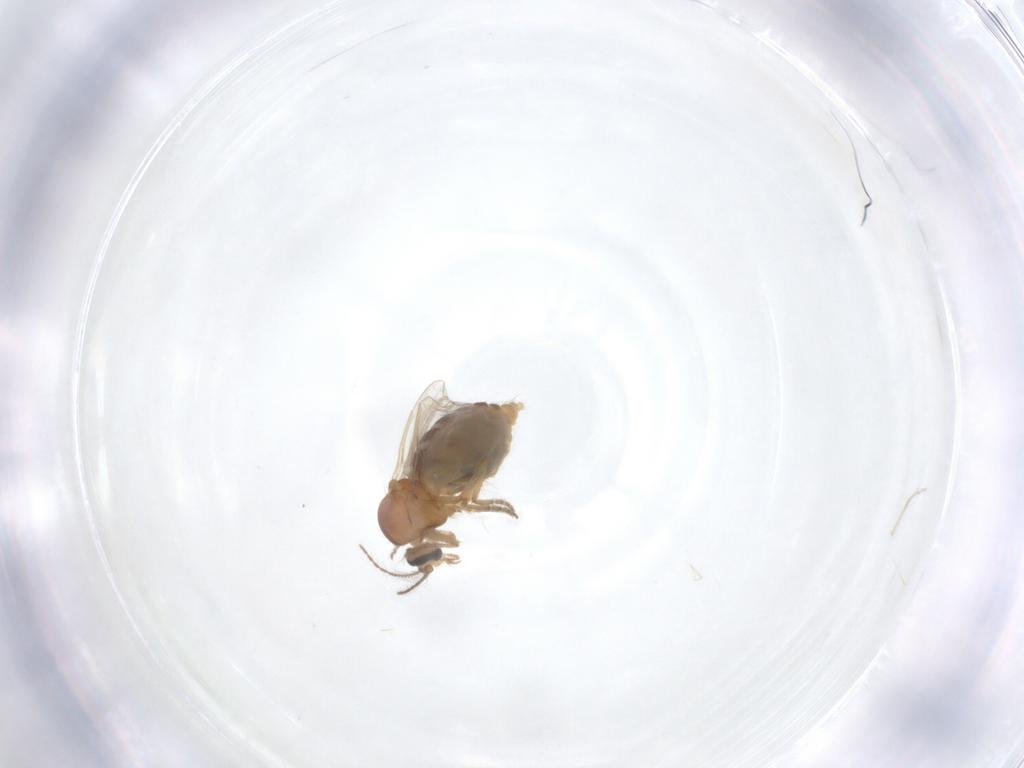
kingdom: Animalia
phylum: Arthropoda
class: Insecta
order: Diptera
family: Ceratopogonidae
